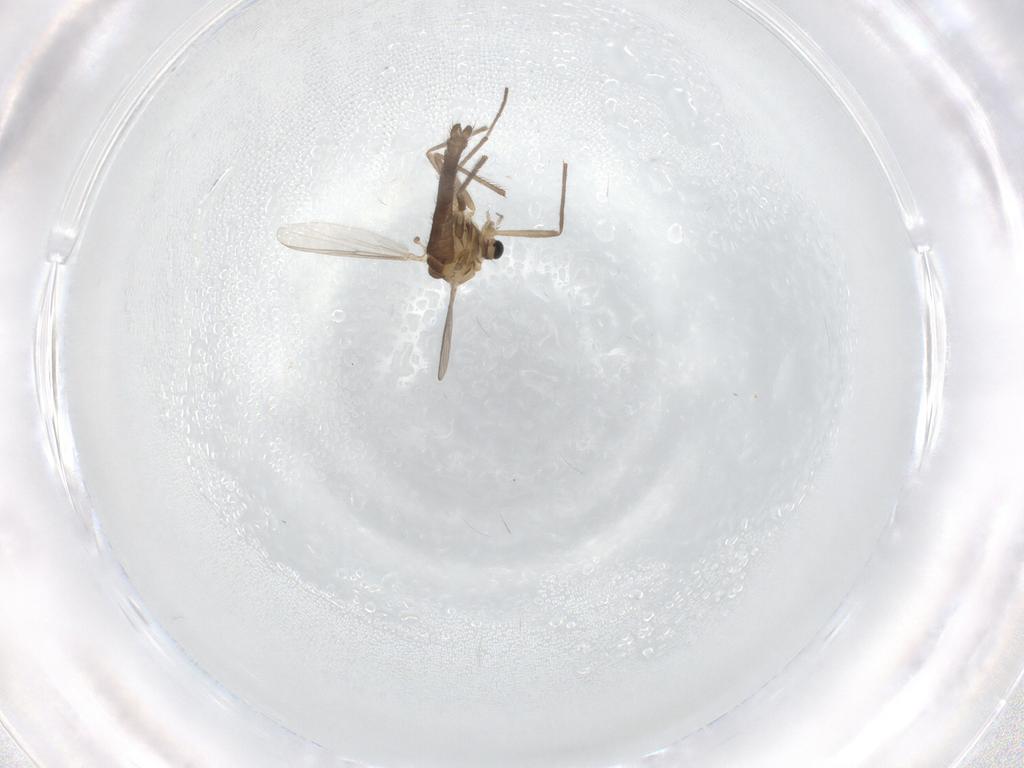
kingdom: Animalia
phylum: Arthropoda
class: Insecta
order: Diptera
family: Chironomidae
